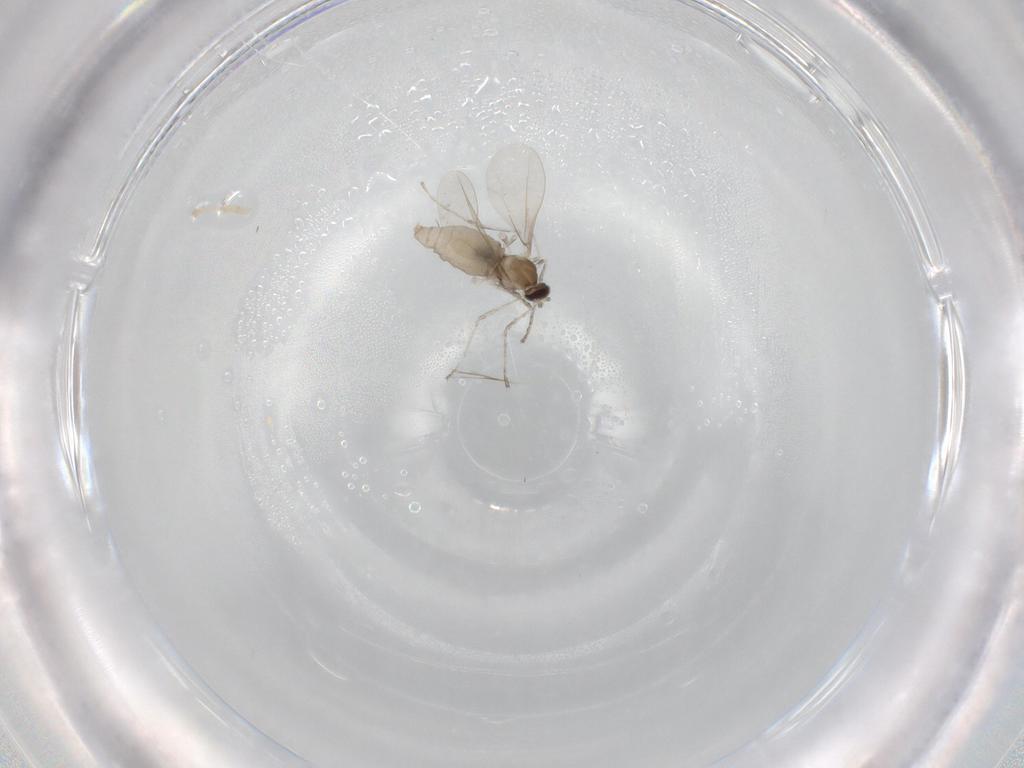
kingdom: Animalia
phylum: Arthropoda
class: Insecta
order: Diptera
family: Cecidomyiidae
